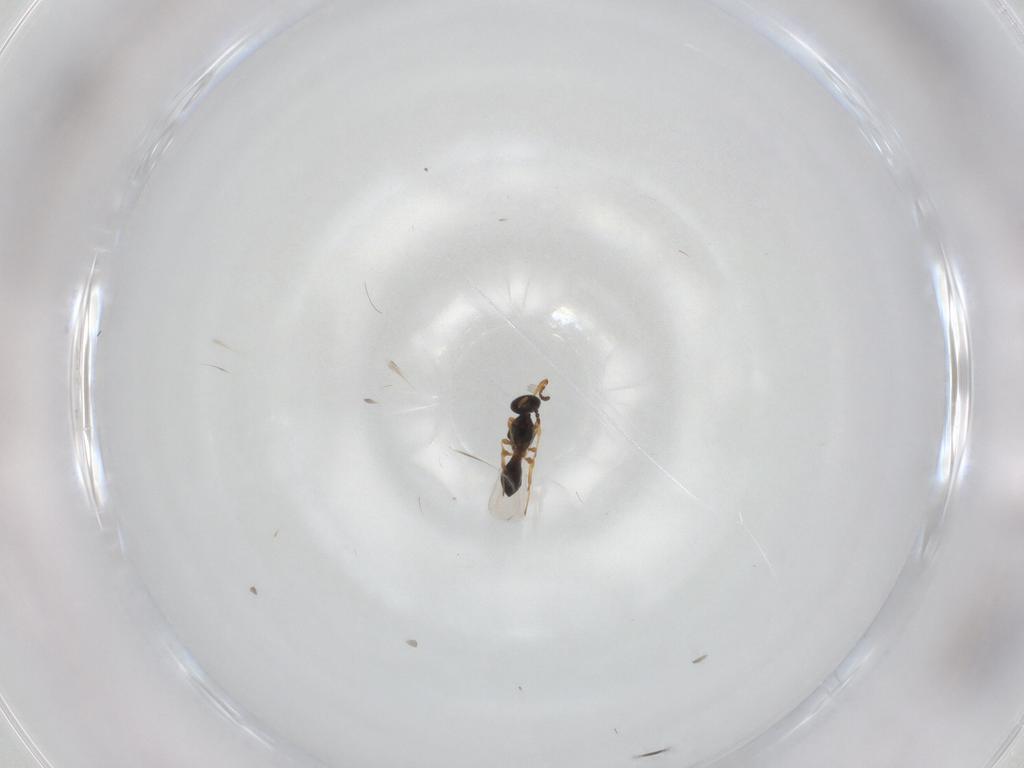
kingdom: Animalia
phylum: Arthropoda
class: Insecta
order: Hymenoptera
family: Platygastridae
